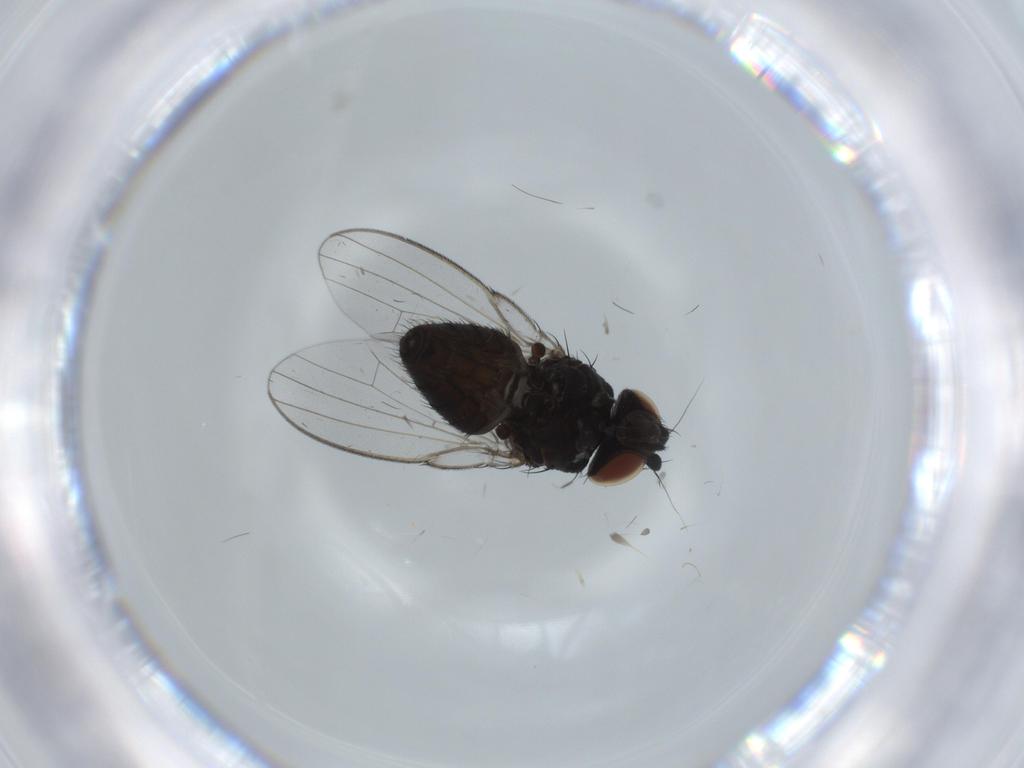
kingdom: Animalia
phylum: Arthropoda
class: Insecta
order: Diptera
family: Milichiidae
